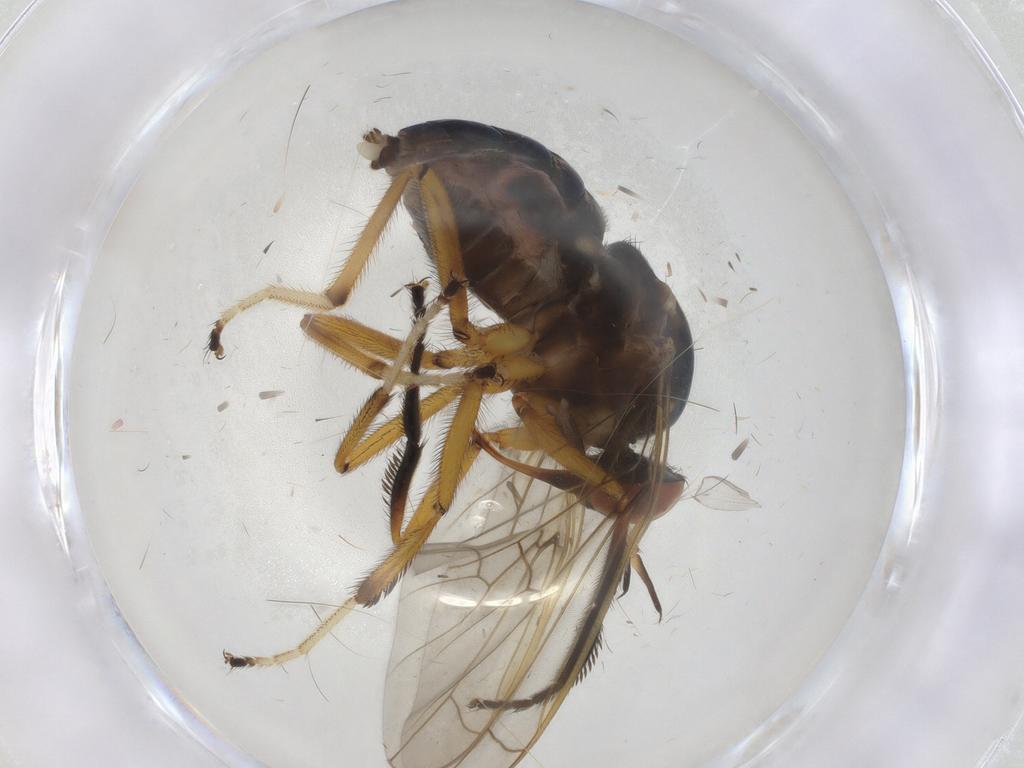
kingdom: Animalia
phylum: Arthropoda
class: Insecta
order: Diptera
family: Empididae
